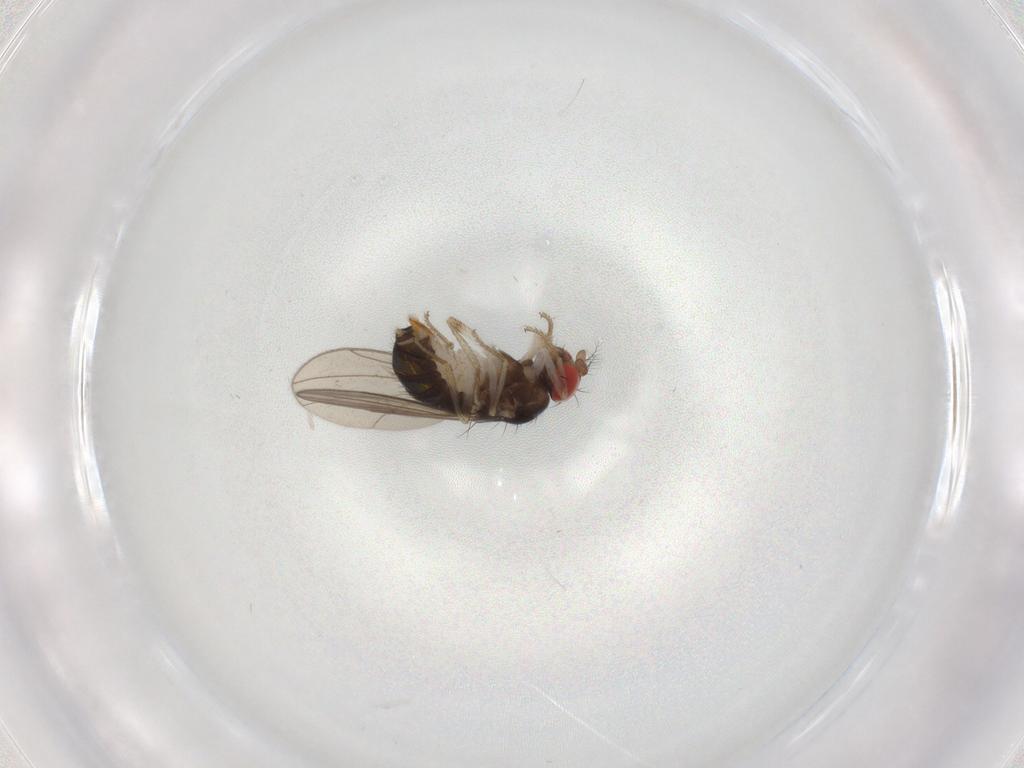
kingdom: Animalia
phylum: Arthropoda
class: Insecta
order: Diptera
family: Drosophilidae
